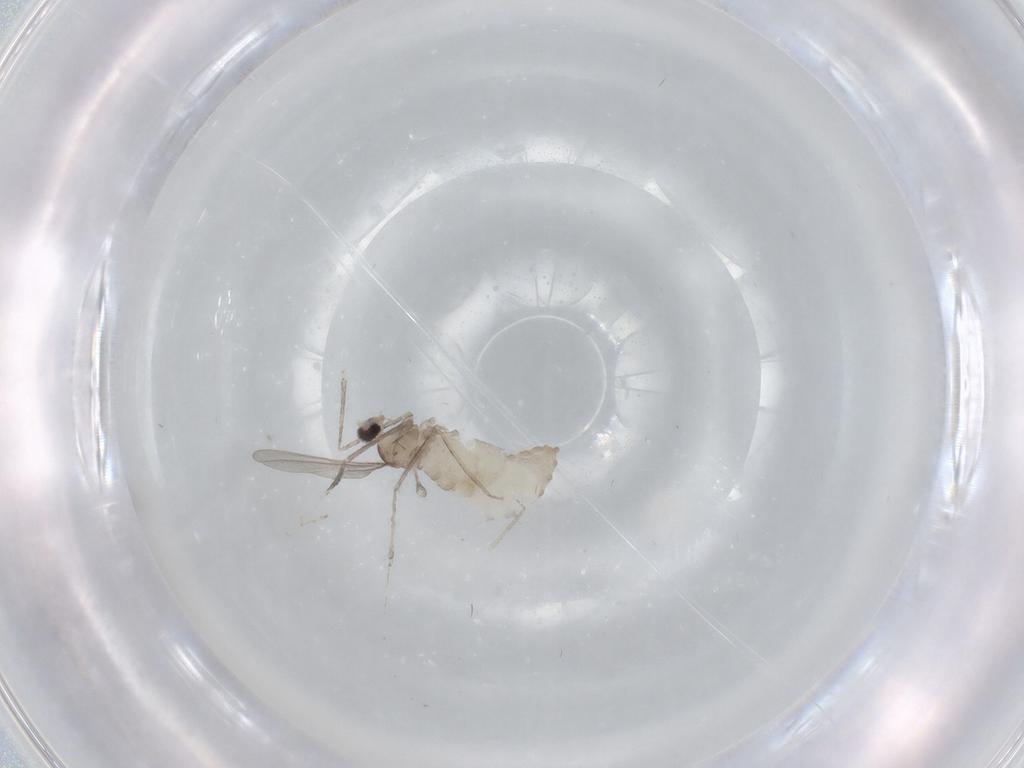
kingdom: Animalia
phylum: Arthropoda
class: Insecta
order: Diptera
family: Cecidomyiidae
